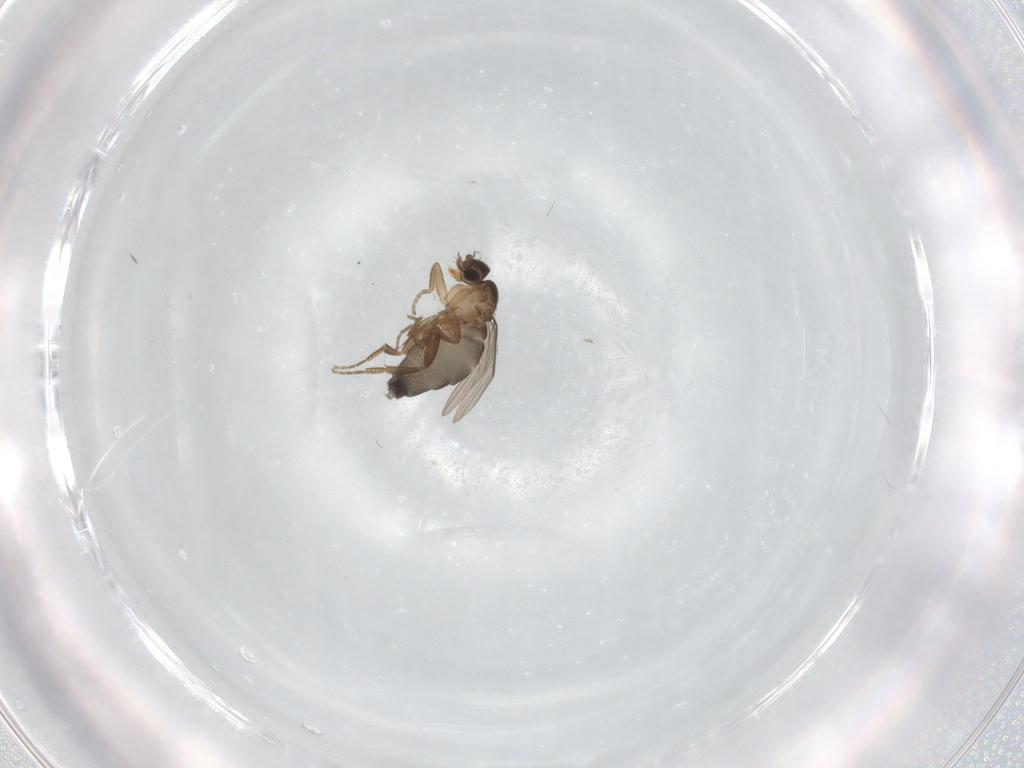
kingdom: Animalia
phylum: Arthropoda
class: Insecta
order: Diptera
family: Phoridae
